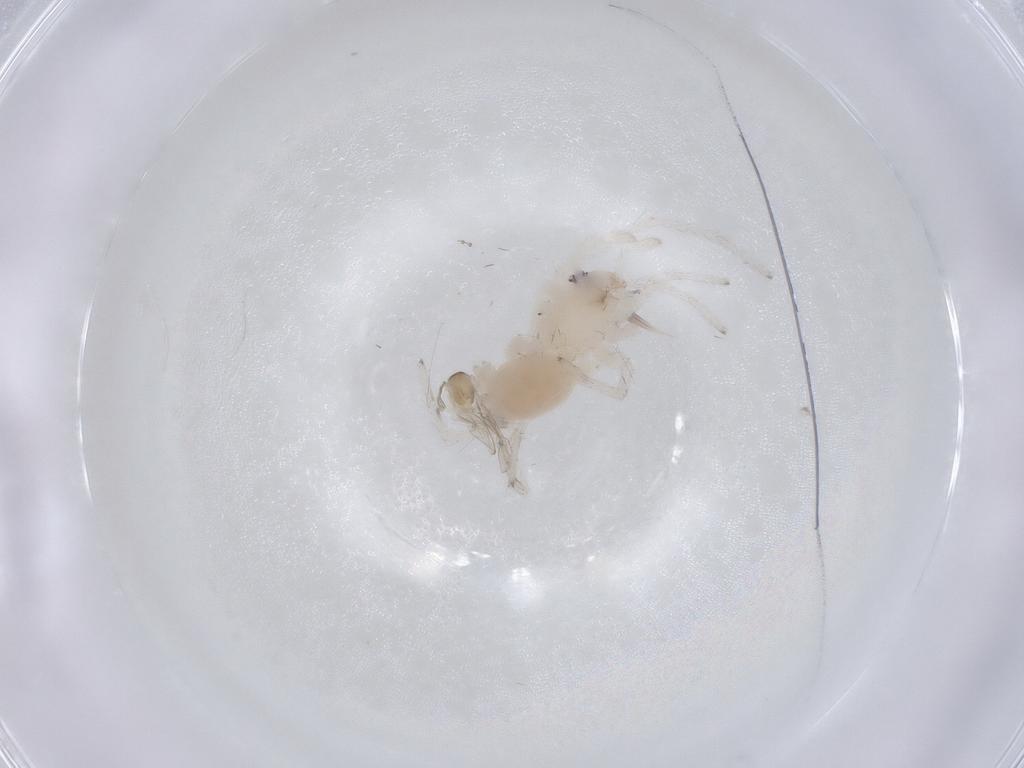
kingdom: Animalia
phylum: Arthropoda
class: Insecta
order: Diptera
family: Cecidomyiidae
